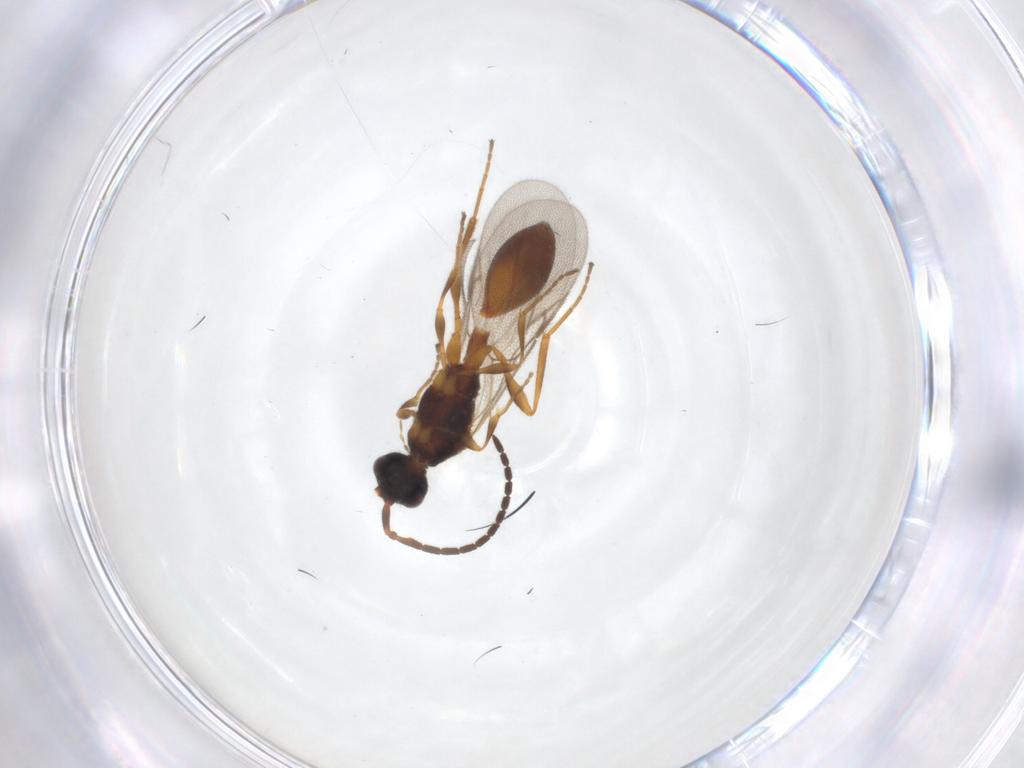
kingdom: Animalia
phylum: Arthropoda
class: Insecta
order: Hymenoptera
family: Diapriidae
